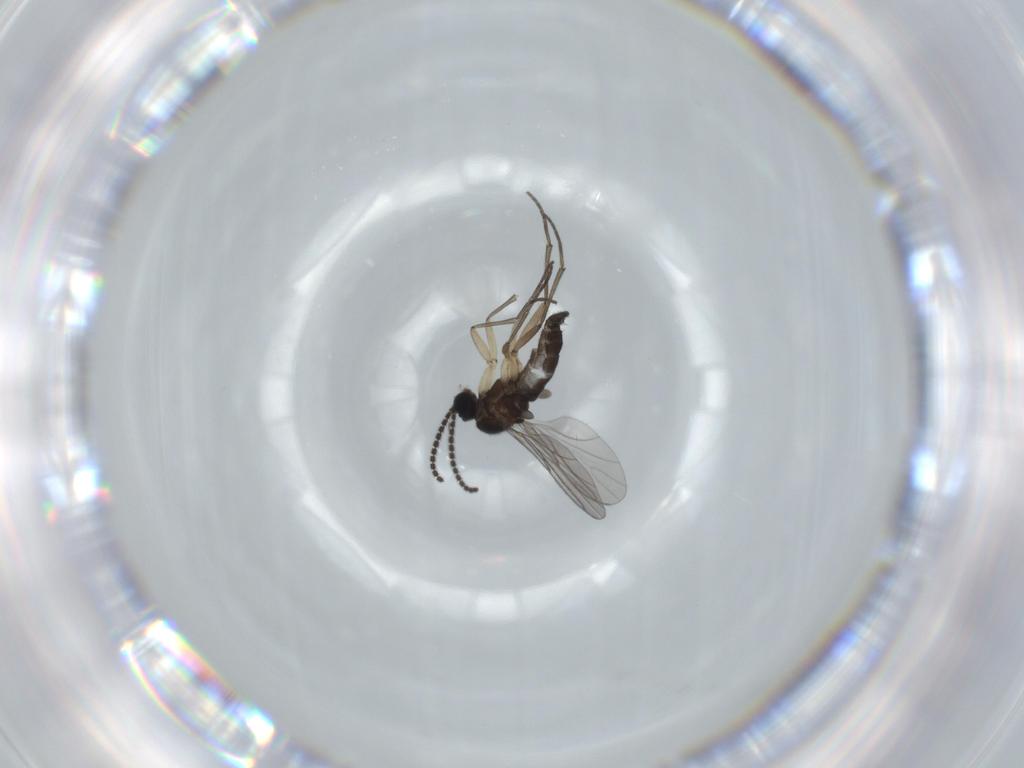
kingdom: Animalia
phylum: Arthropoda
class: Insecta
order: Diptera
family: Sciaridae
